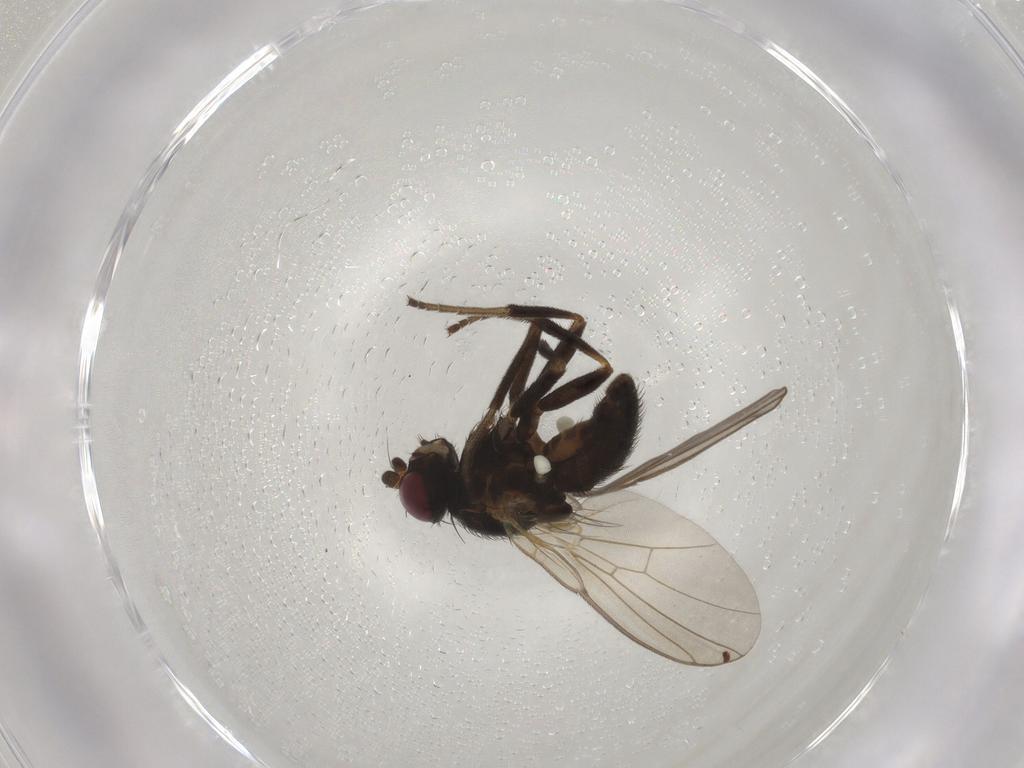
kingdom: Animalia
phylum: Arthropoda
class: Insecta
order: Diptera
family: Agromyzidae
